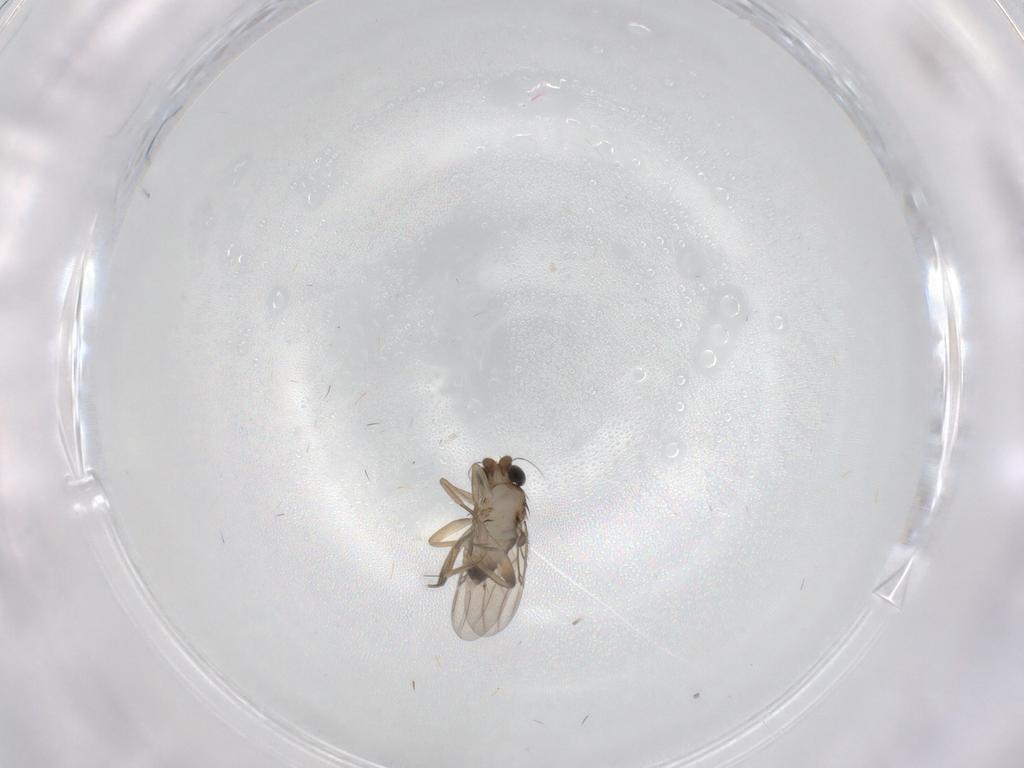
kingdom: Animalia
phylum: Arthropoda
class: Insecta
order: Diptera
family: Phoridae
